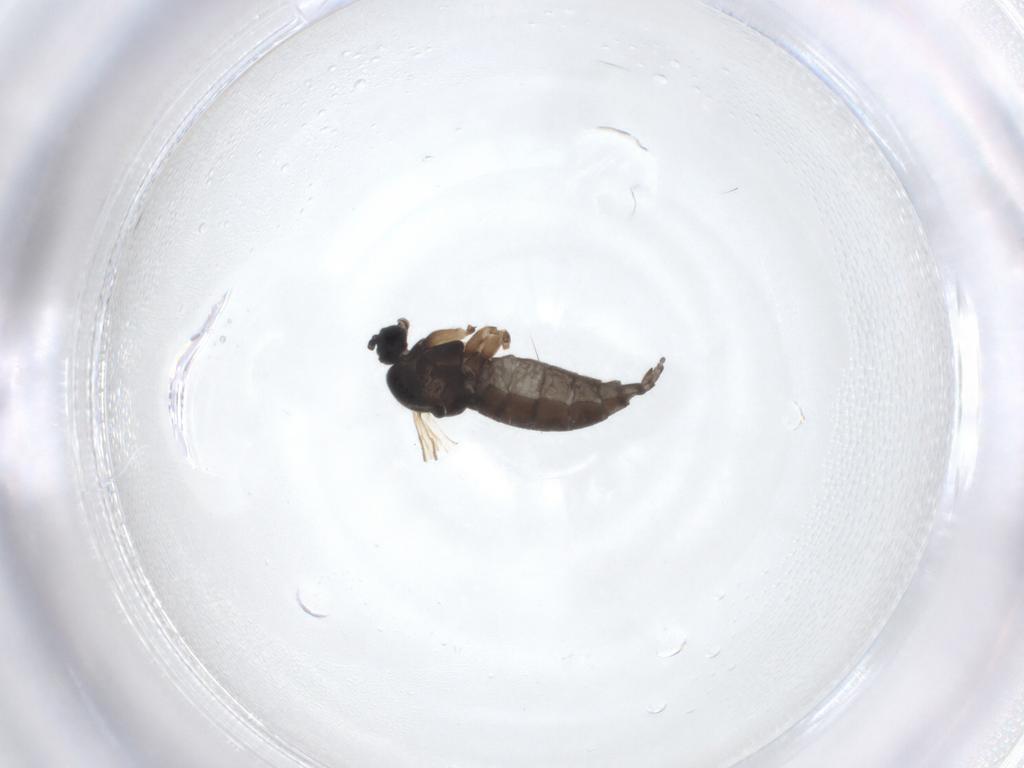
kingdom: Animalia
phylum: Arthropoda
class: Insecta
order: Diptera
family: Sciaridae
